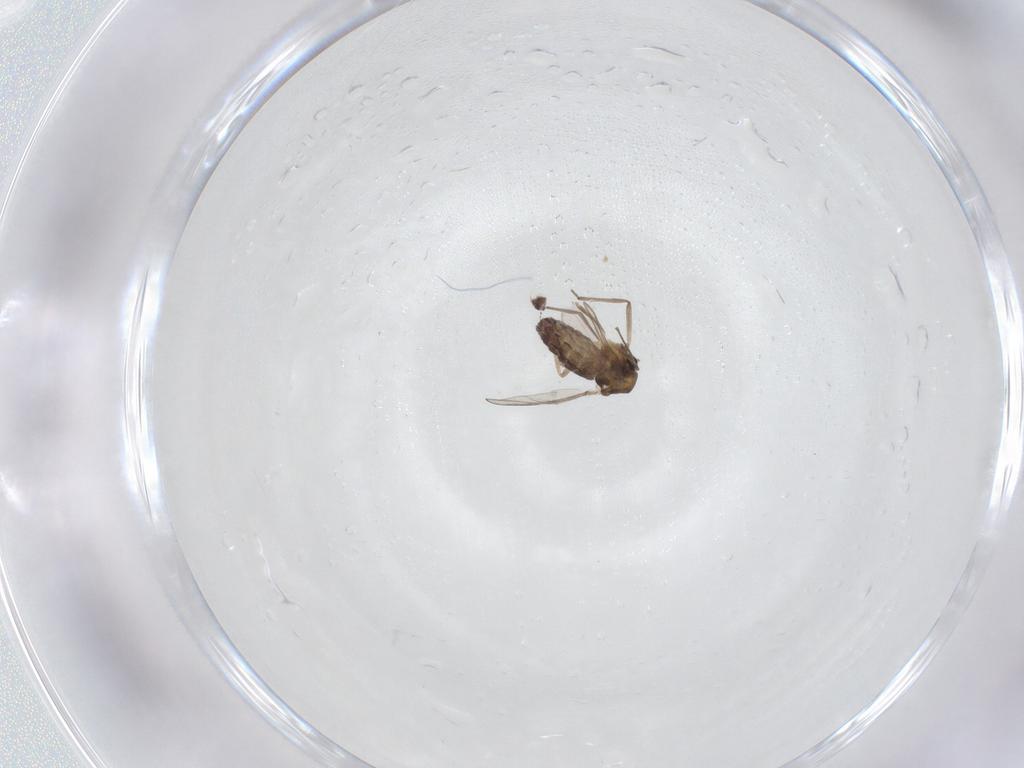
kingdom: Animalia
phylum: Arthropoda
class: Insecta
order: Diptera
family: Chironomidae
